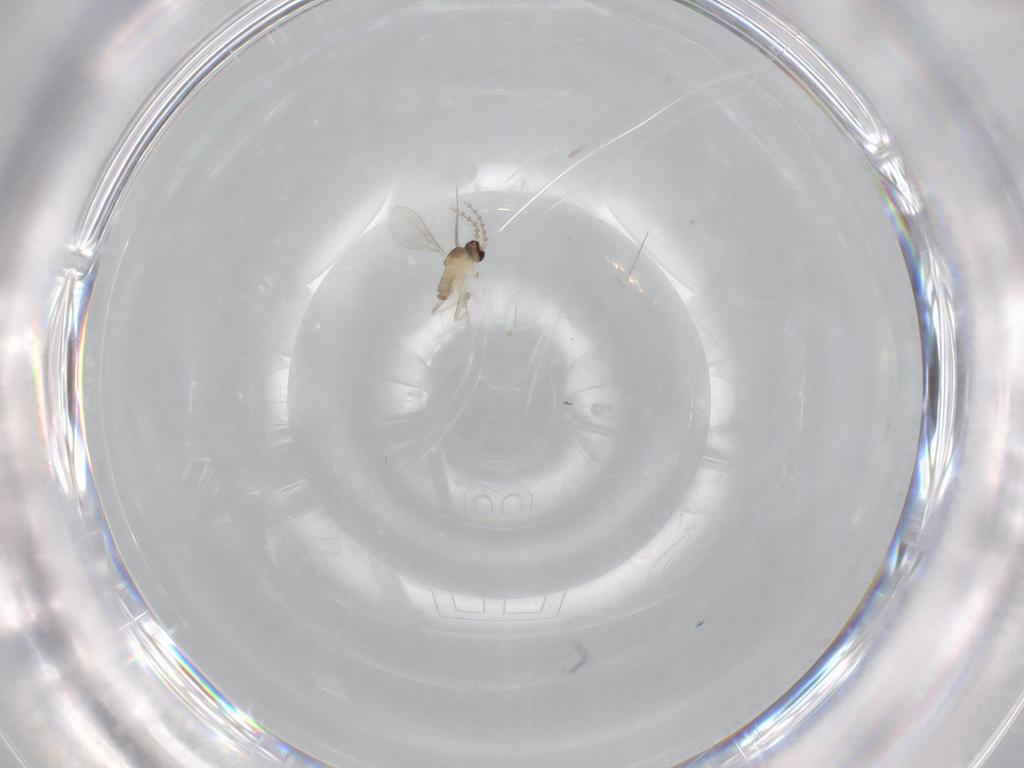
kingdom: Animalia
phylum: Arthropoda
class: Insecta
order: Diptera
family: Cecidomyiidae
